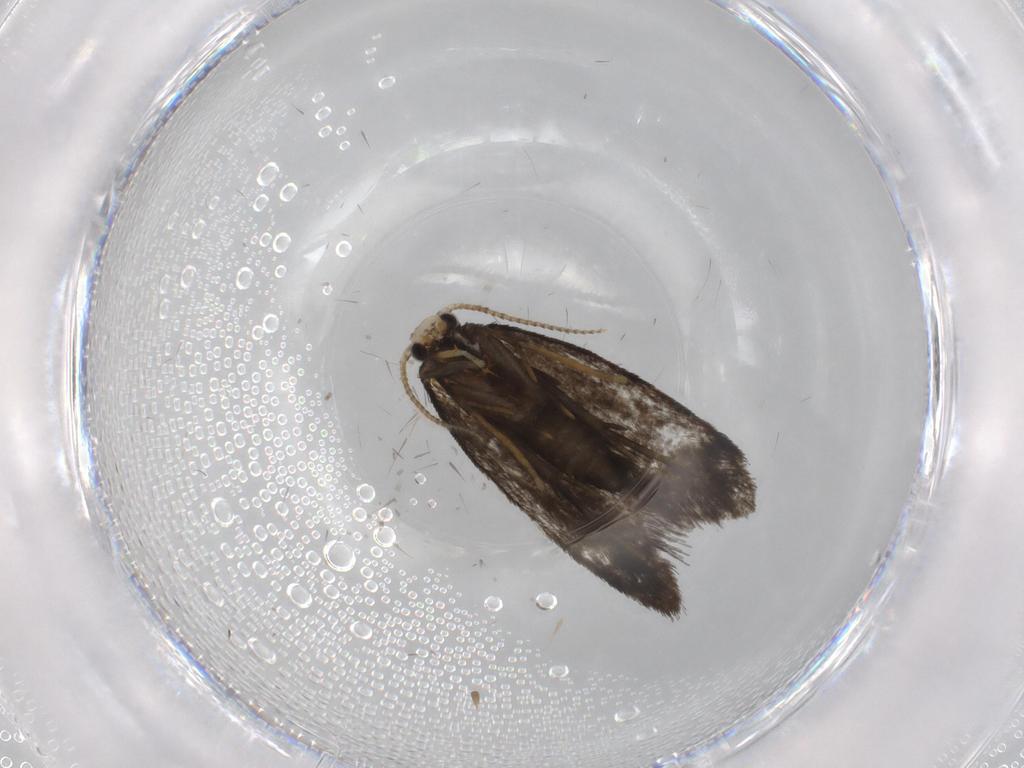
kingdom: Animalia
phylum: Arthropoda
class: Insecta
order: Lepidoptera
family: Psychidae
